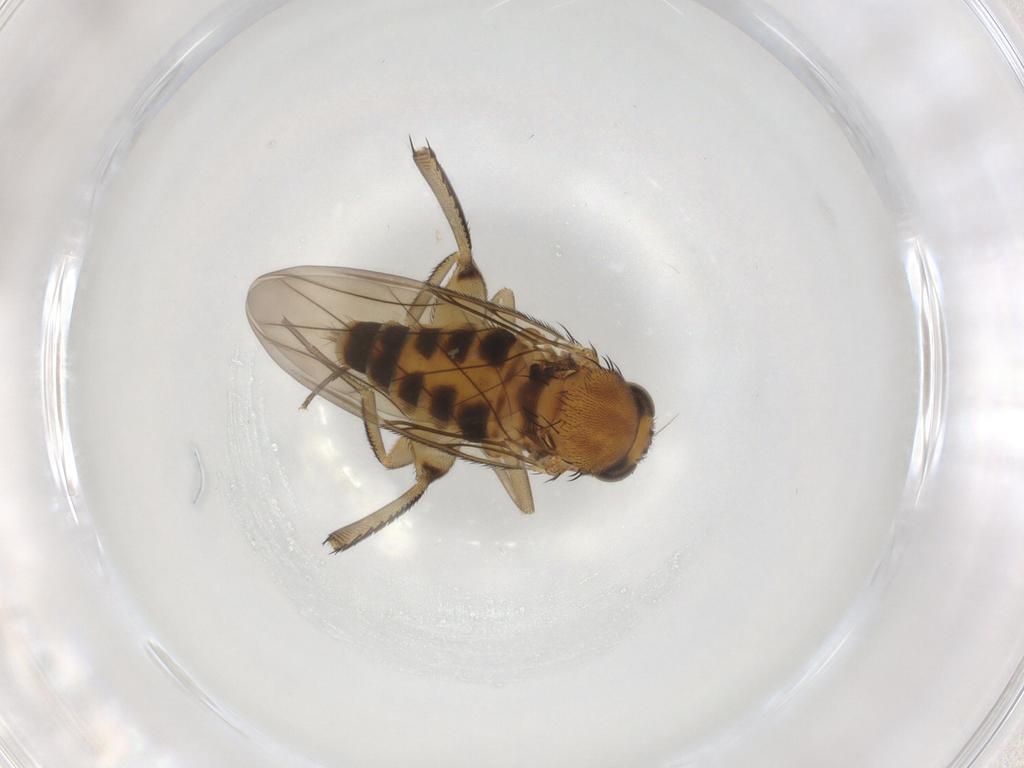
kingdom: Animalia
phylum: Arthropoda
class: Insecta
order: Diptera
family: Phoridae
